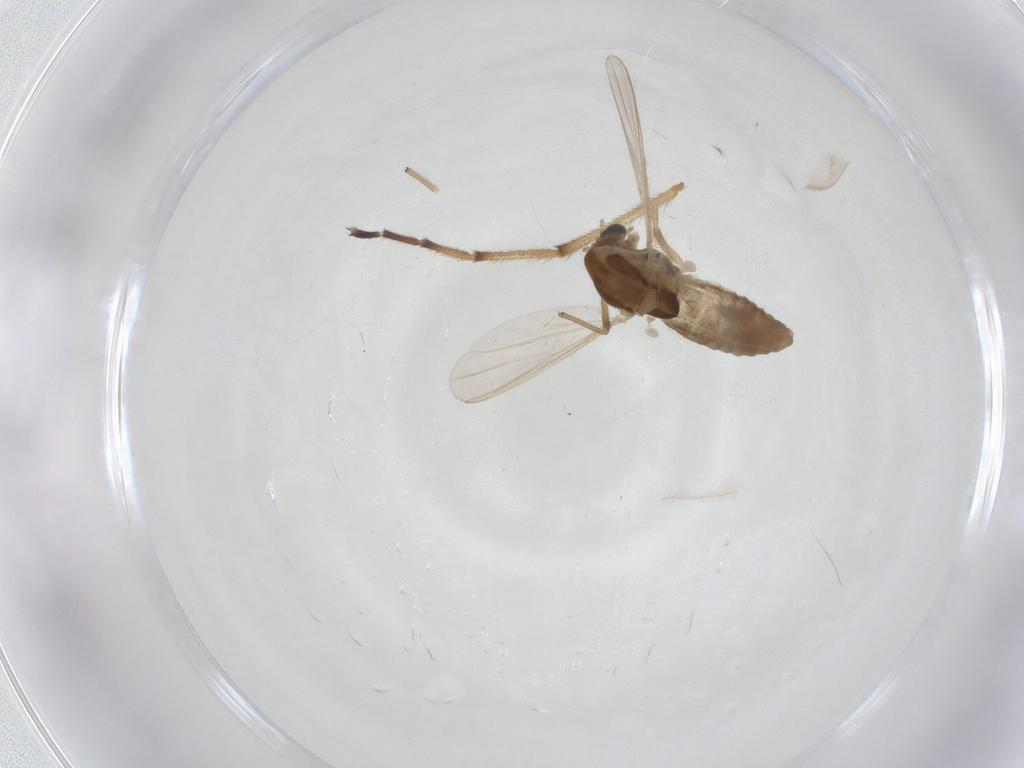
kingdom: Animalia
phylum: Arthropoda
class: Insecta
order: Diptera
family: Chironomidae
